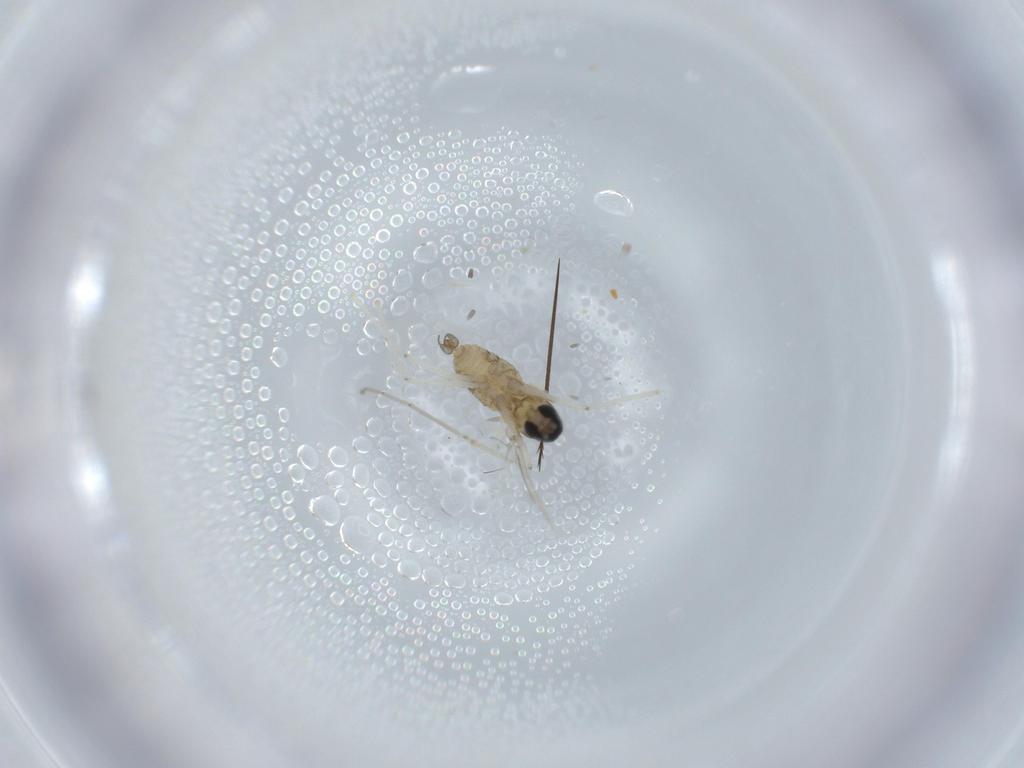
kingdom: Animalia
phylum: Arthropoda
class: Insecta
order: Diptera
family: Cecidomyiidae
